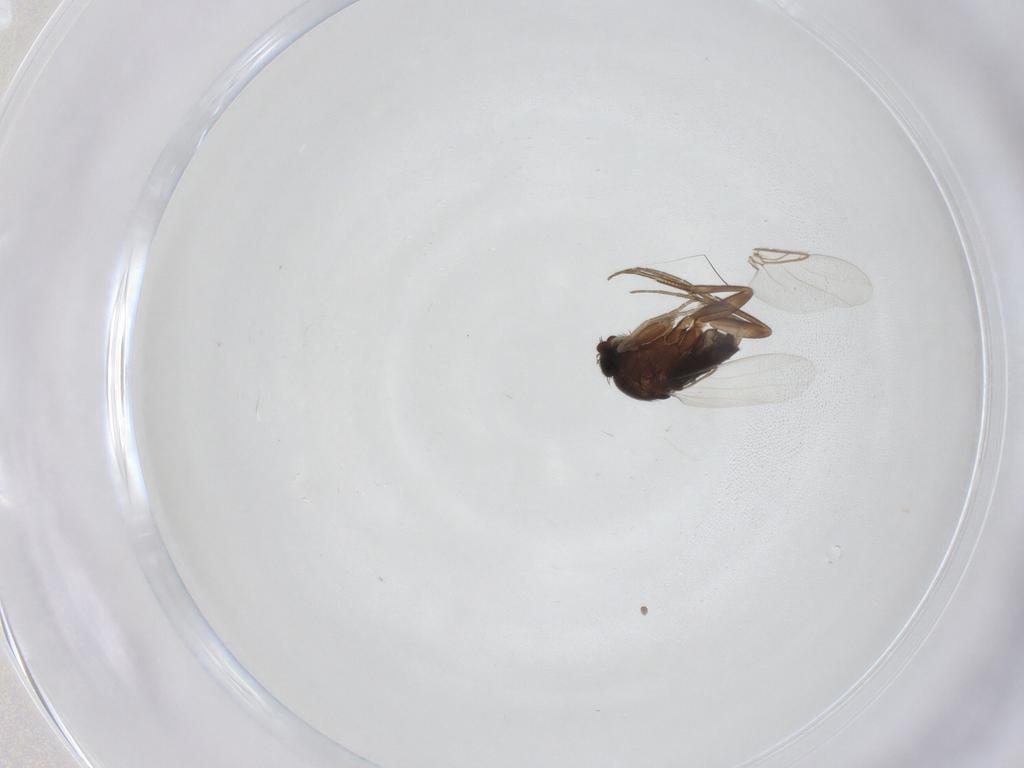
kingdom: Animalia
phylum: Arthropoda
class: Insecta
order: Diptera
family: Phoridae
